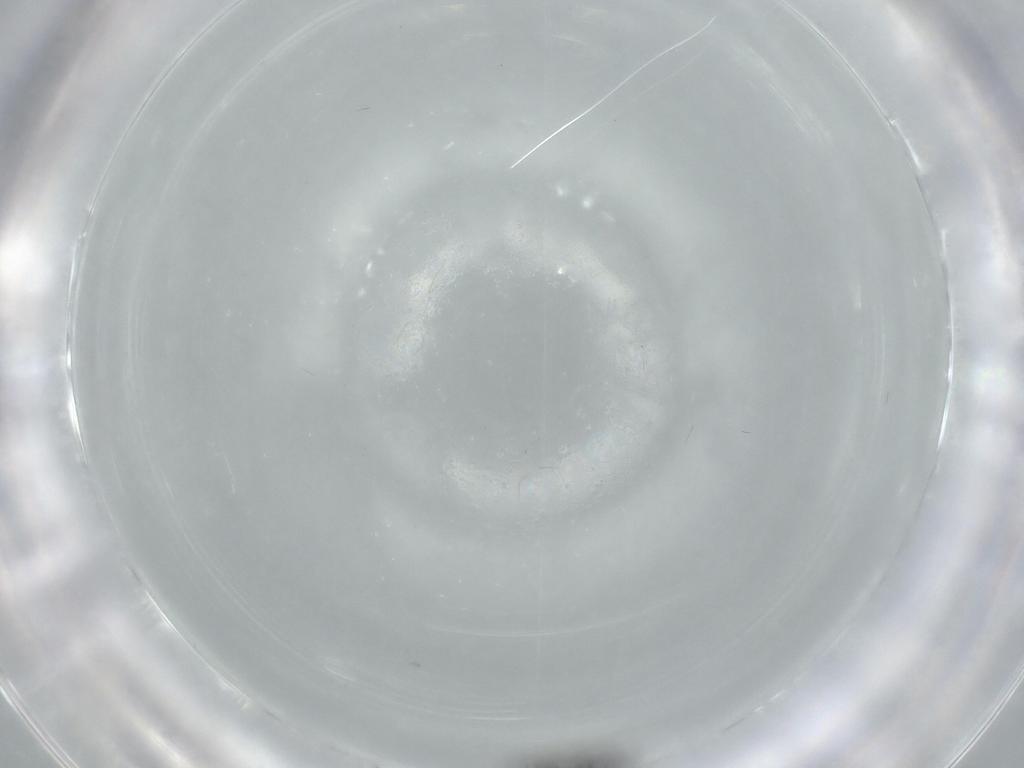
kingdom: Animalia
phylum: Arthropoda
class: Insecta
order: Diptera
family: Sciaridae
